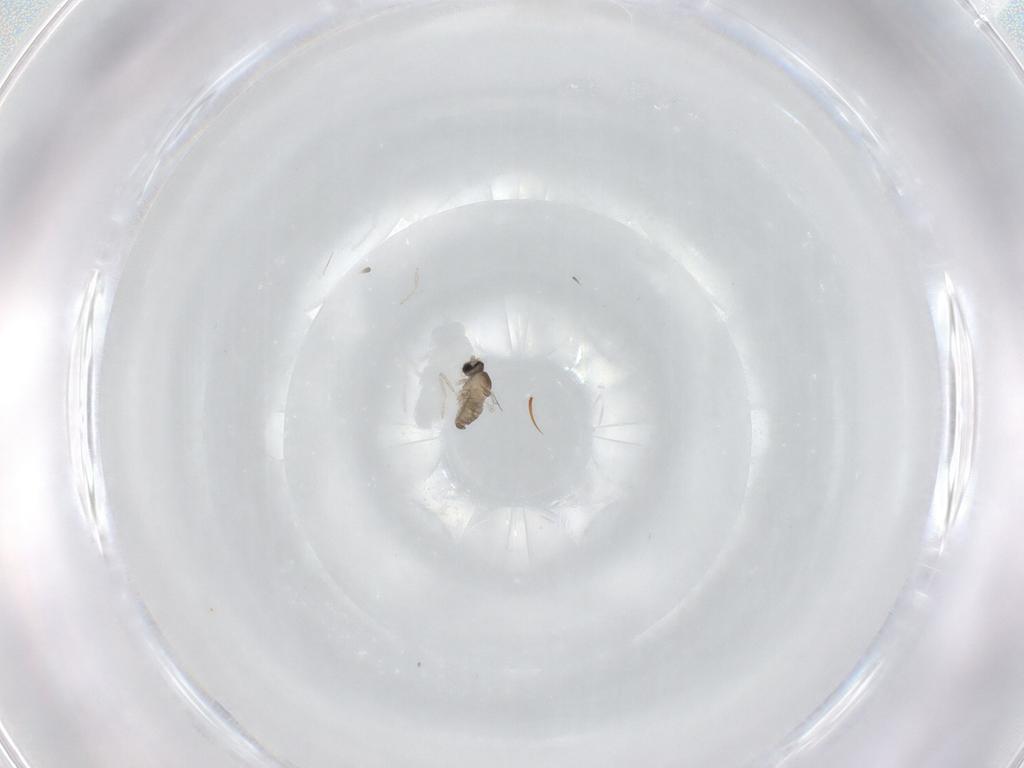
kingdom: Animalia
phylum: Arthropoda
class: Insecta
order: Diptera
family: Cecidomyiidae
